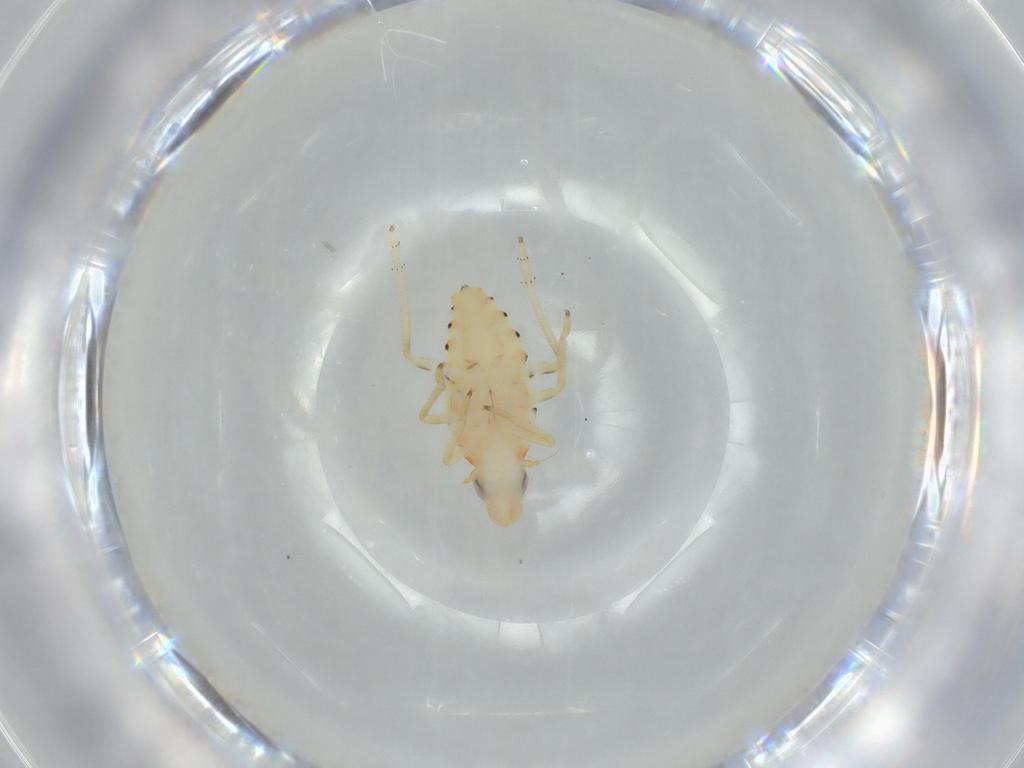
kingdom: Animalia
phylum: Arthropoda
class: Insecta
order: Hemiptera
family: Tropiduchidae
